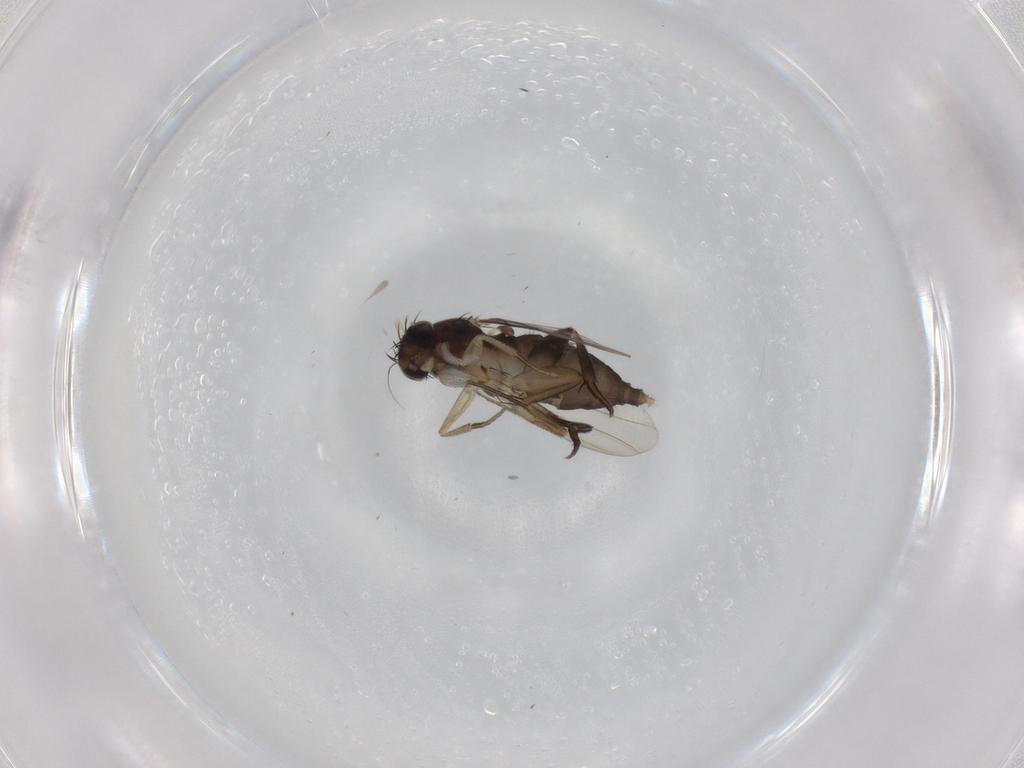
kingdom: Animalia
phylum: Arthropoda
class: Insecta
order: Diptera
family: Phoridae
